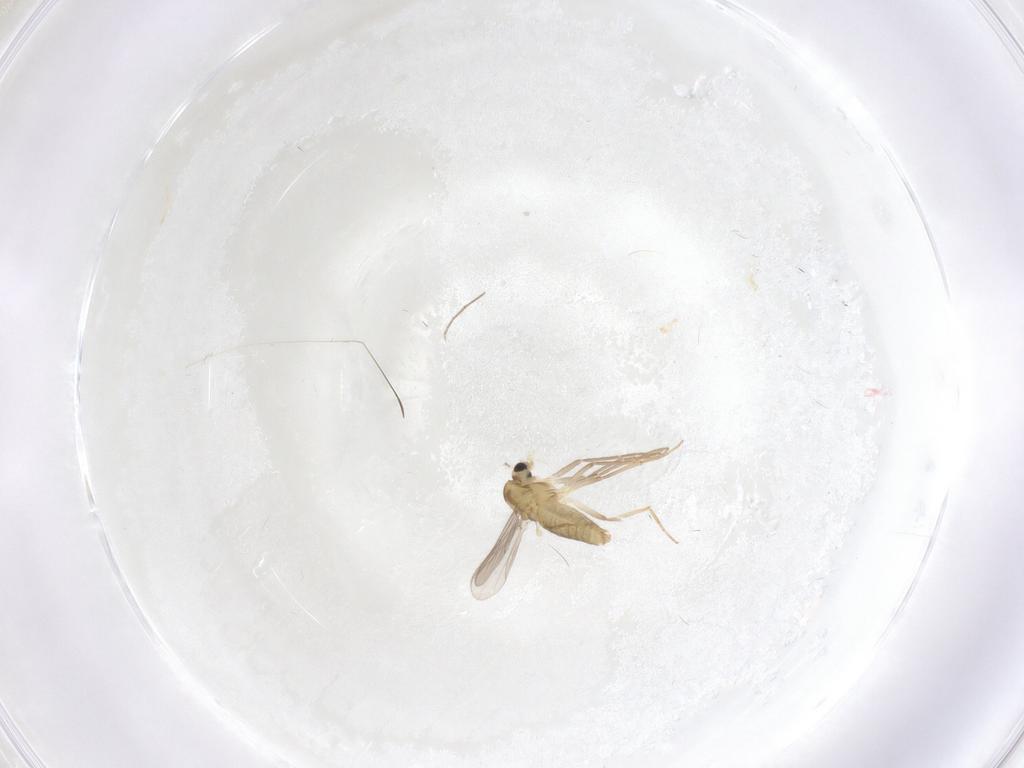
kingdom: Animalia
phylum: Arthropoda
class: Insecta
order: Diptera
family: Chironomidae
